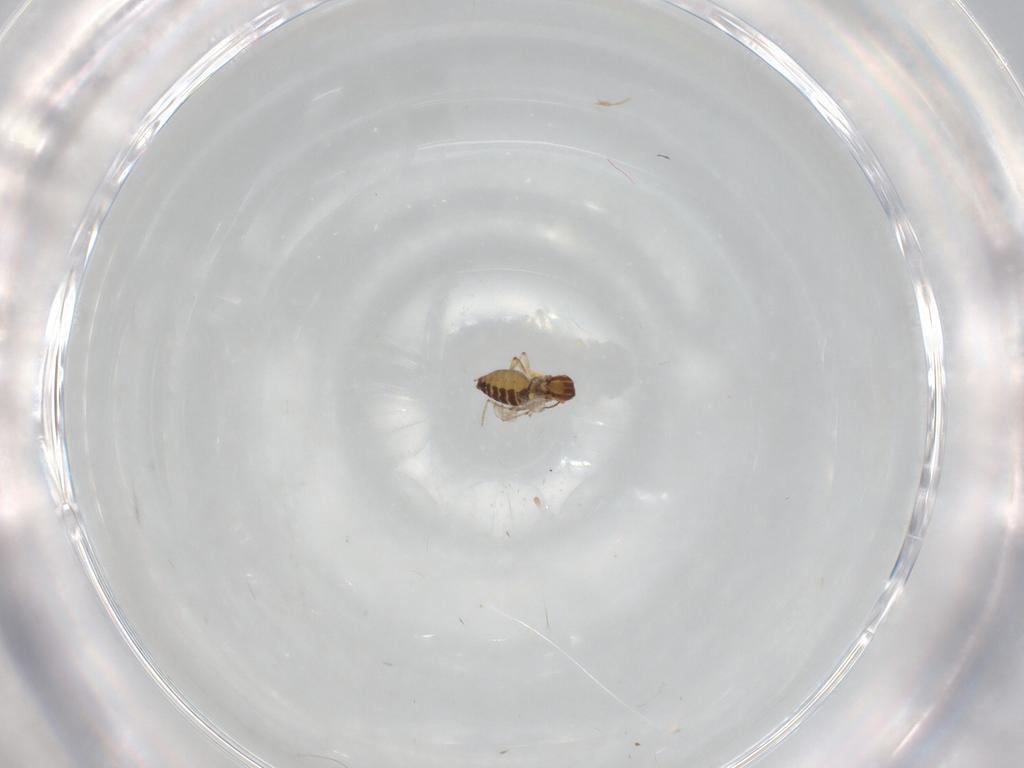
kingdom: Animalia
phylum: Arthropoda
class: Insecta
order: Diptera
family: Ceratopogonidae
